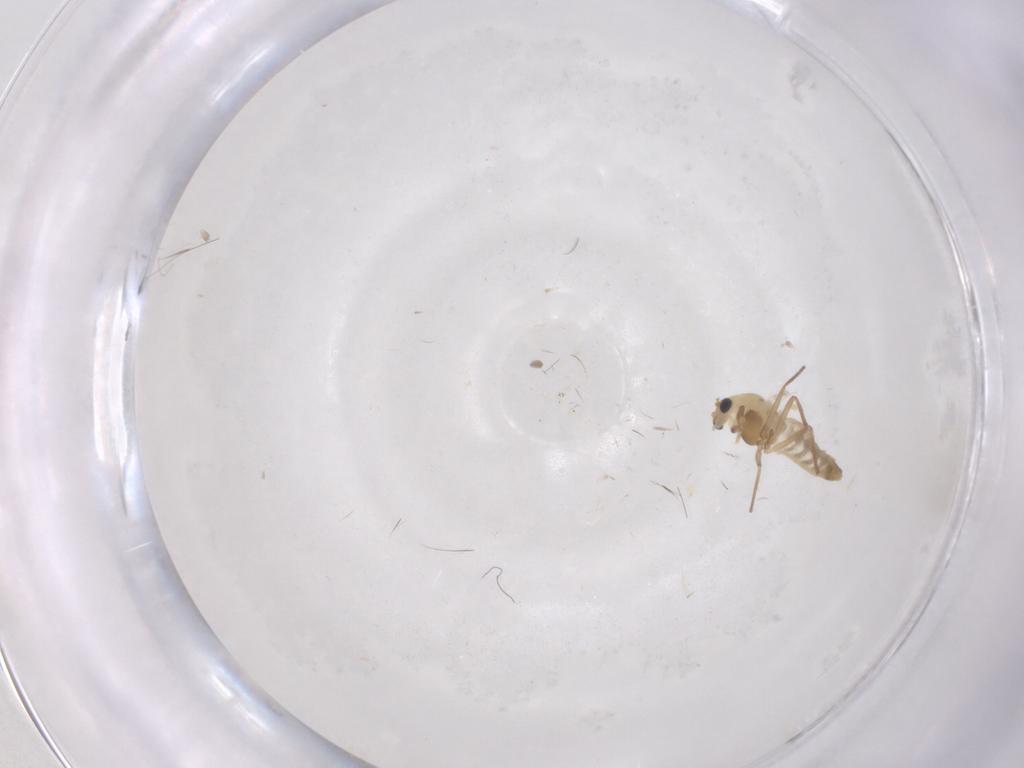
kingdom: Animalia
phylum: Arthropoda
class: Insecta
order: Diptera
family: Chironomidae
